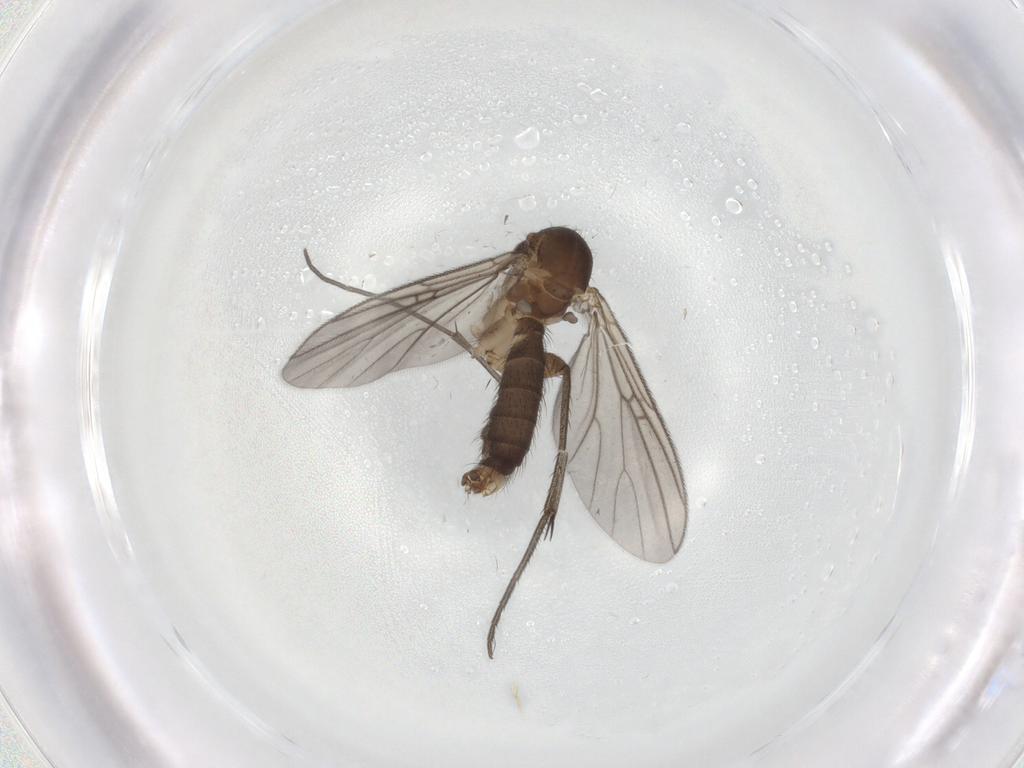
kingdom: Animalia
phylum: Arthropoda
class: Insecta
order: Diptera
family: Mycetophilidae
